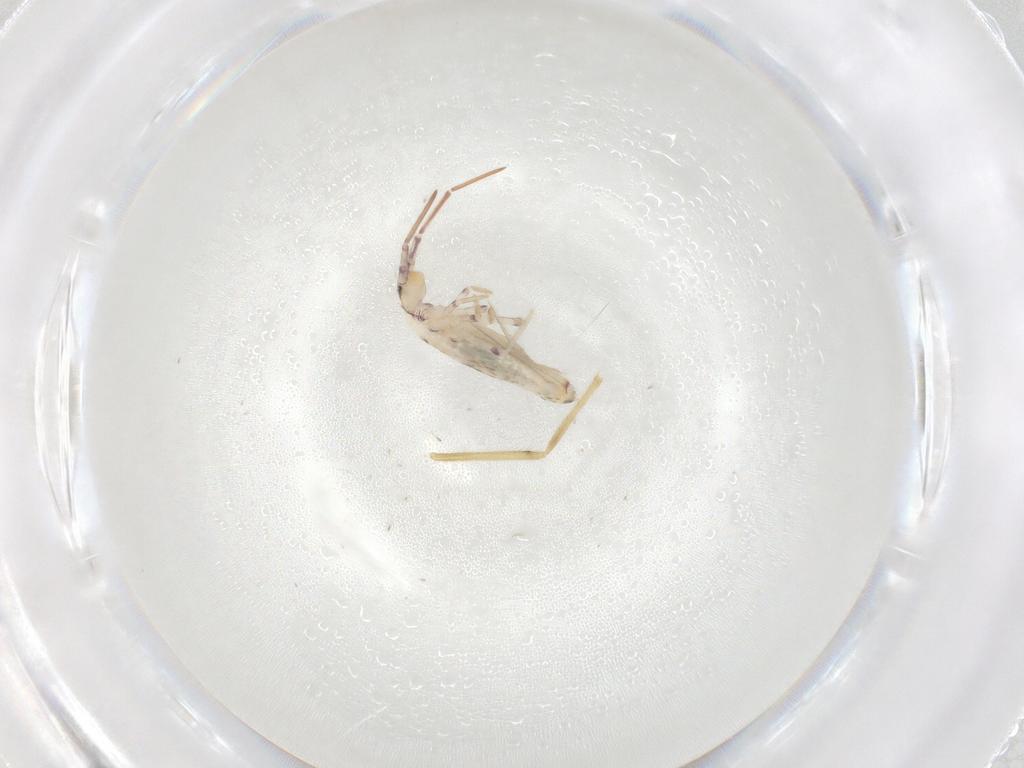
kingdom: Animalia
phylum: Arthropoda
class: Collembola
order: Entomobryomorpha
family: Entomobryidae
